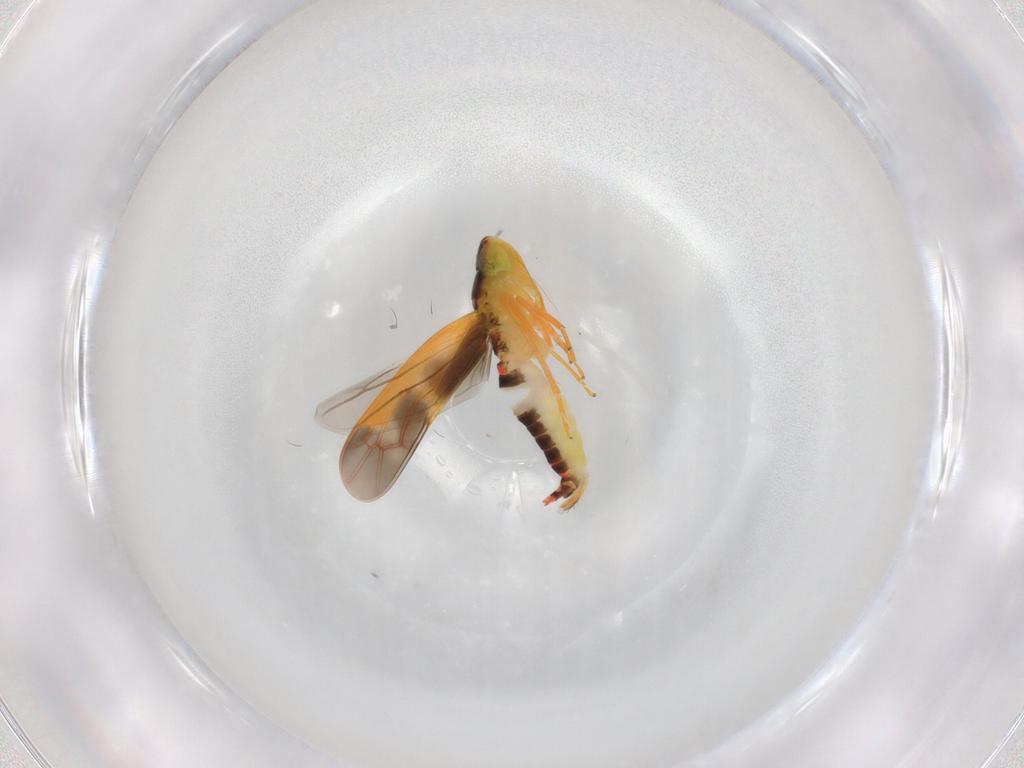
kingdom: Animalia
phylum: Arthropoda
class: Insecta
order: Hemiptera
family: Cicadellidae
